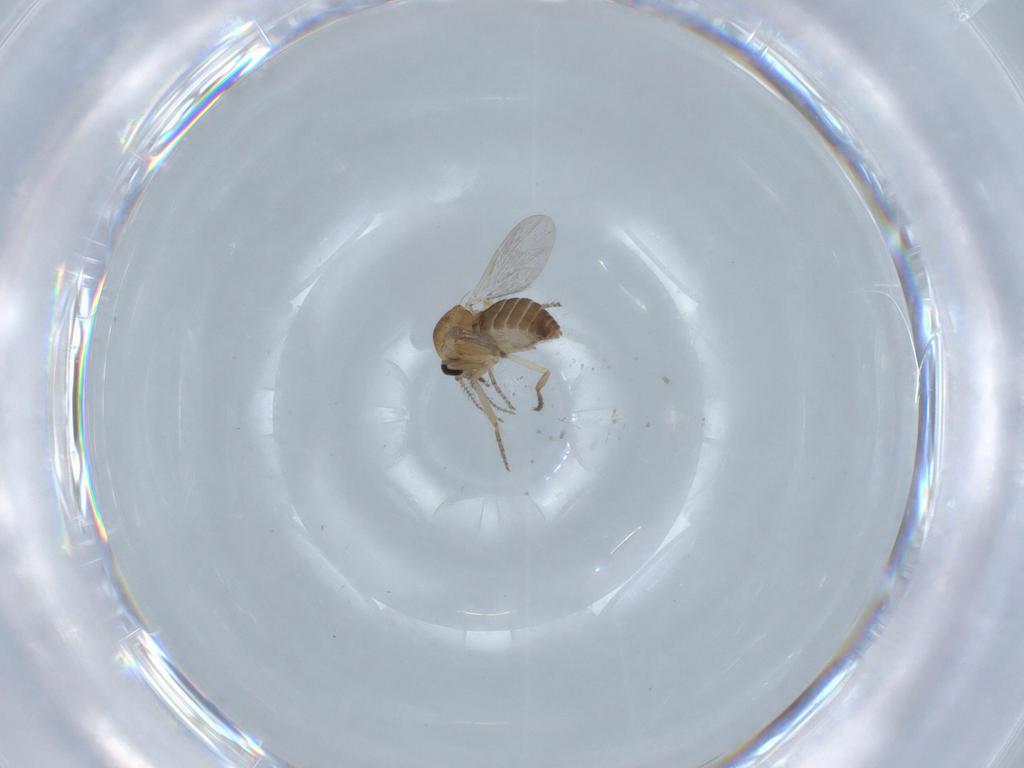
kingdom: Animalia
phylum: Arthropoda
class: Insecta
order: Diptera
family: Ceratopogonidae
